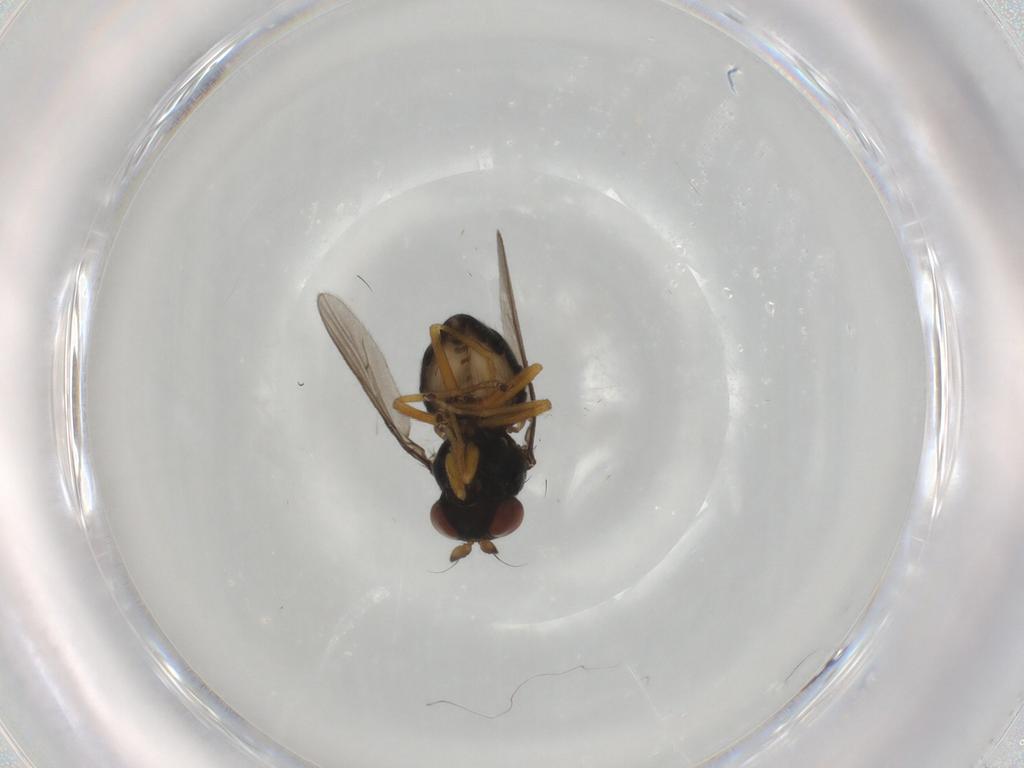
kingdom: Animalia
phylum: Arthropoda
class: Insecta
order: Diptera
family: Ephydridae
